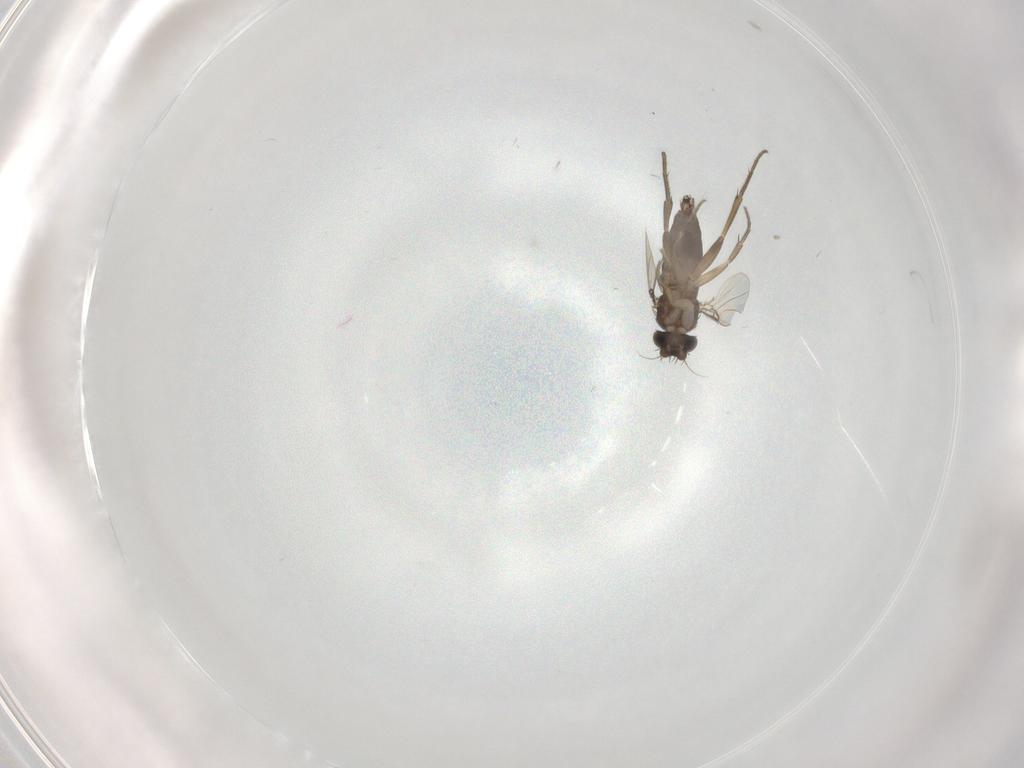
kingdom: Animalia
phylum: Arthropoda
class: Insecta
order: Diptera
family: Phoridae
